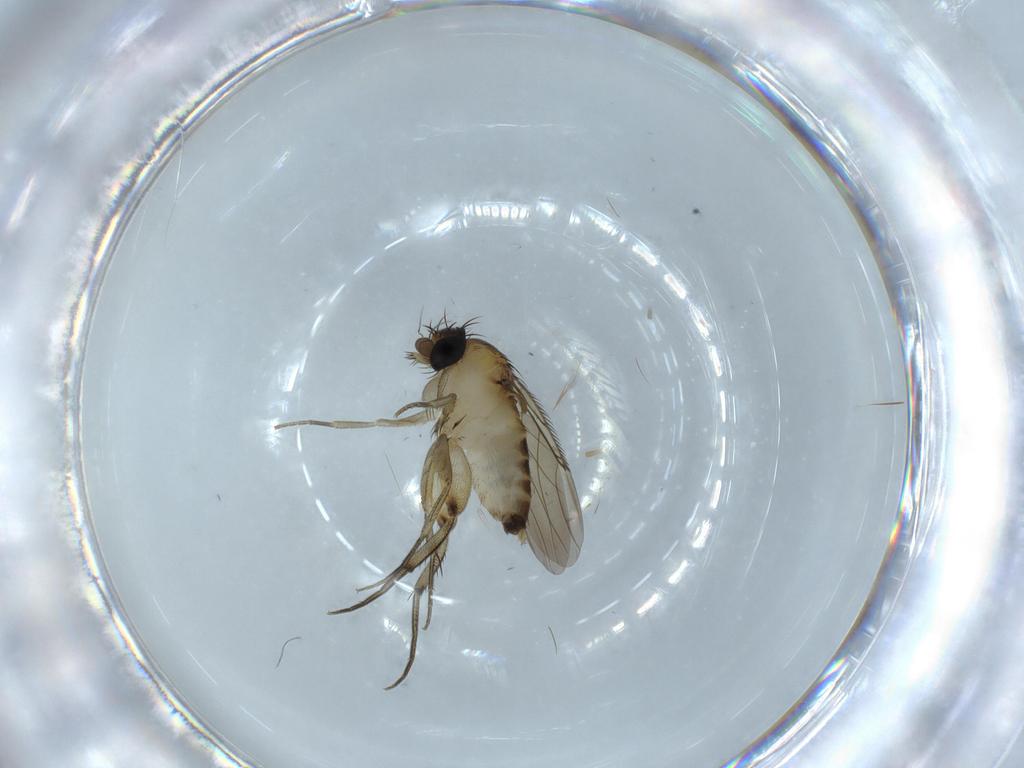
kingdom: Animalia
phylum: Arthropoda
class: Insecta
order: Diptera
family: Phoridae
